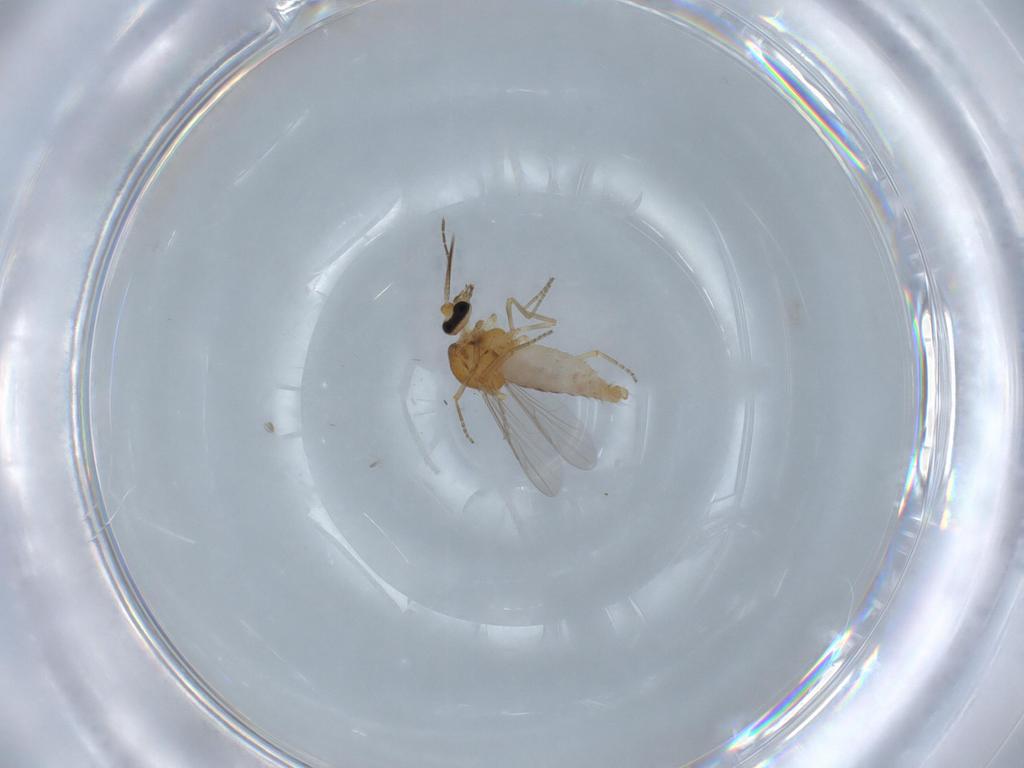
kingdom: Animalia
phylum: Arthropoda
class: Insecta
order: Diptera
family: Ceratopogonidae
